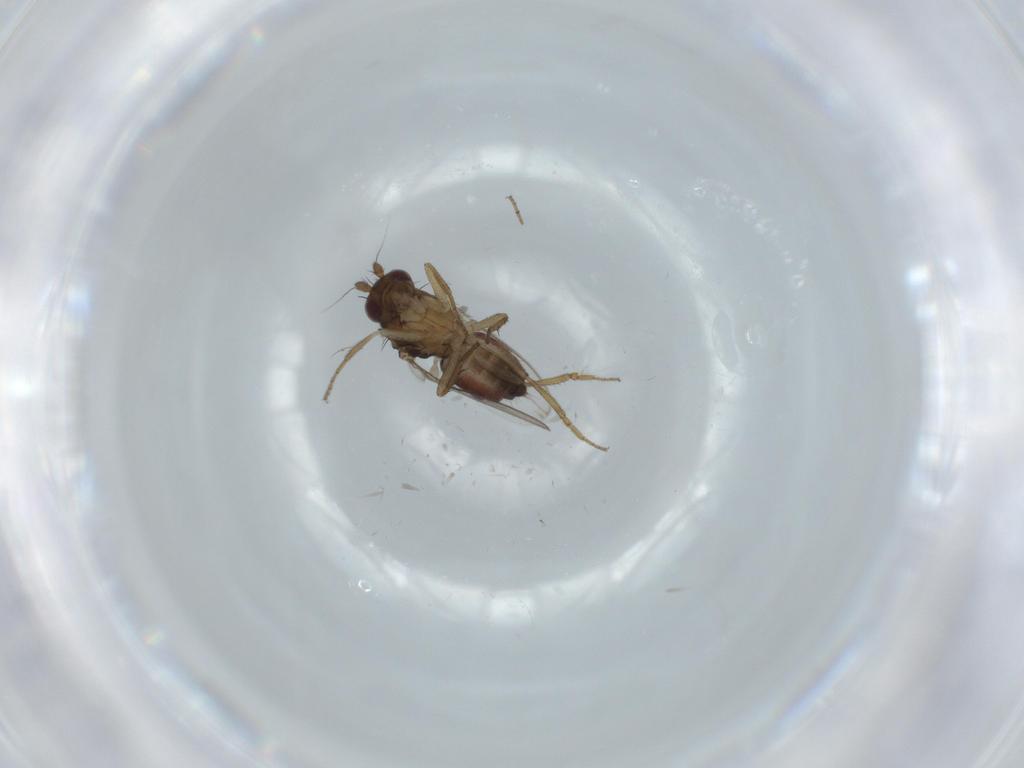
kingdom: Animalia
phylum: Arthropoda
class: Insecta
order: Diptera
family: Sphaeroceridae
